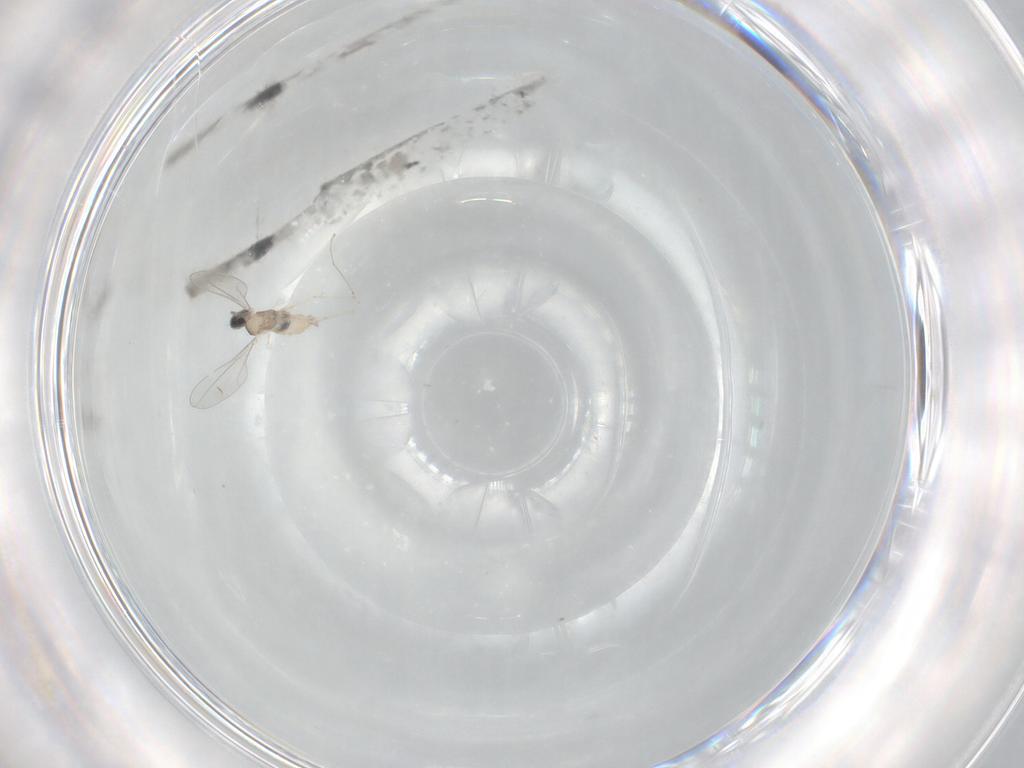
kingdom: Animalia
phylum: Arthropoda
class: Insecta
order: Diptera
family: Cecidomyiidae
